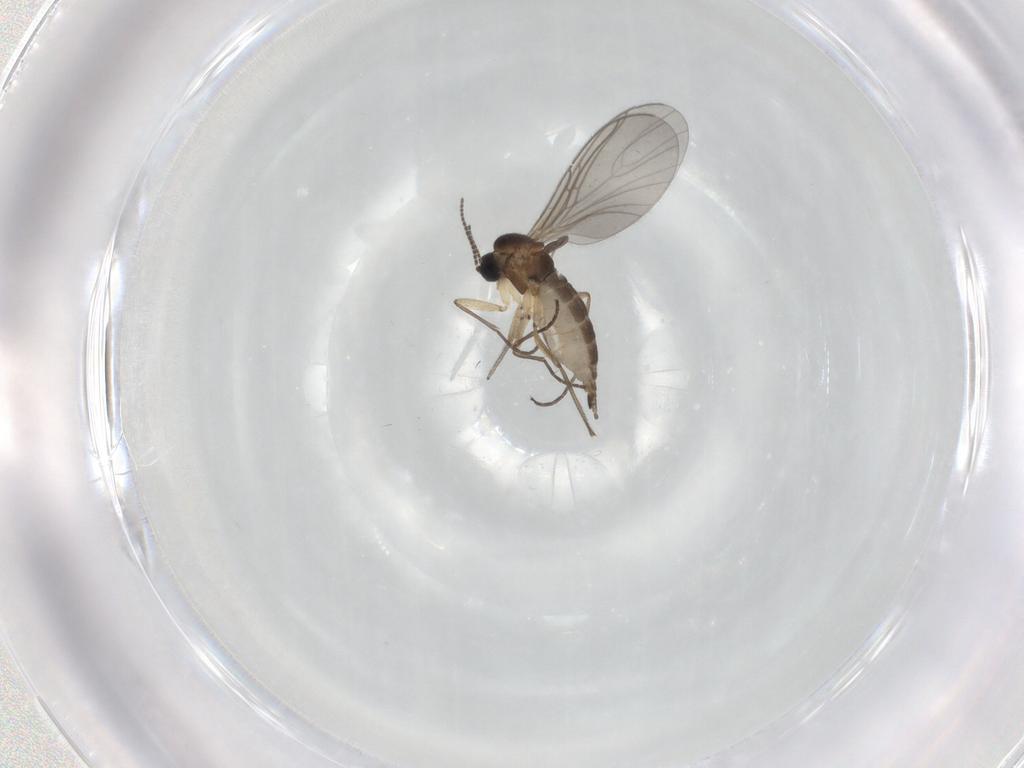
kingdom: Animalia
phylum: Arthropoda
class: Insecta
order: Diptera
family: Sciaridae
